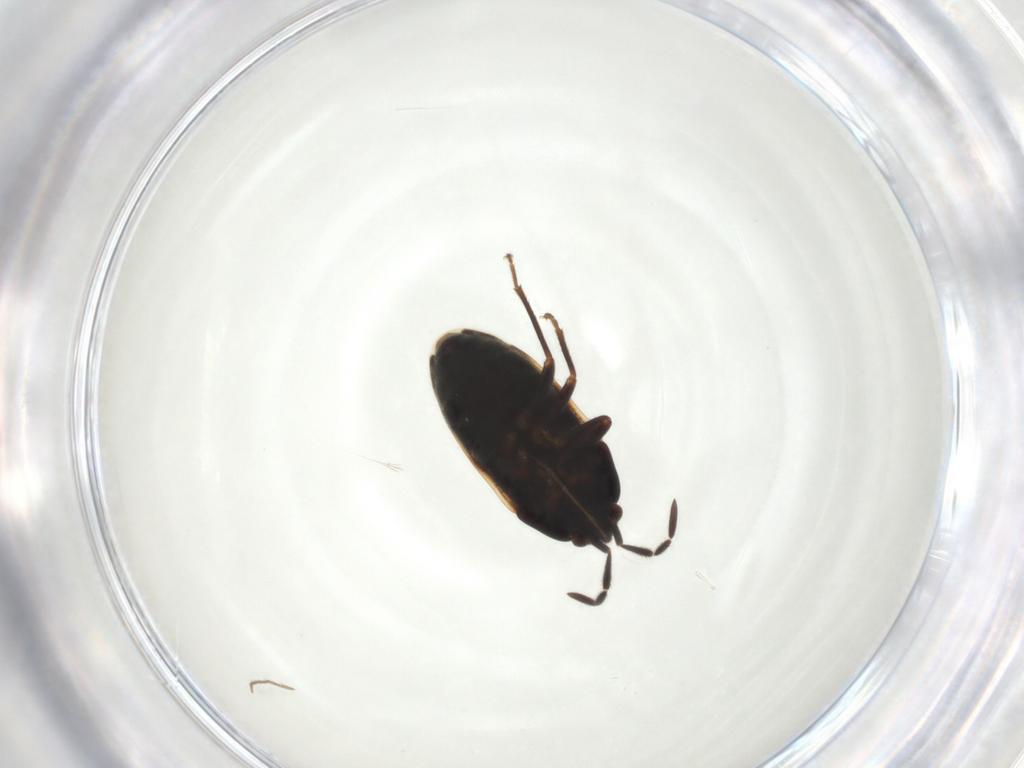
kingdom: Animalia
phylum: Arthropoda
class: Insecta
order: Hemiptera
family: Rhyparochromidae
